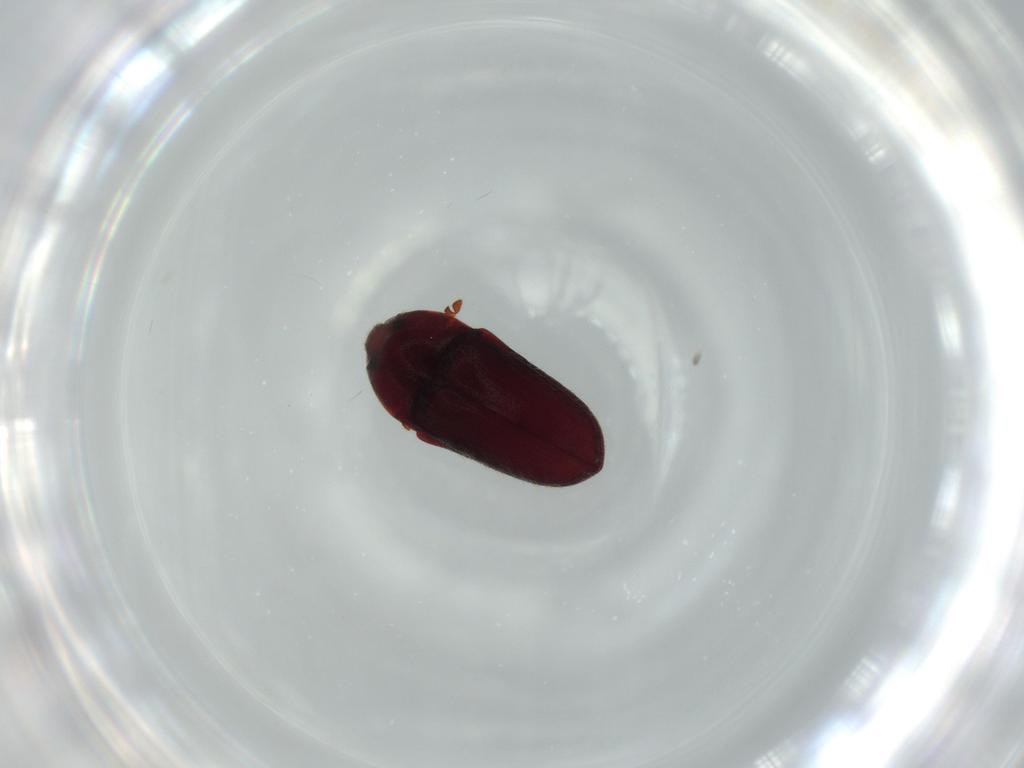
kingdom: Animalia
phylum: Arthropoda
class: Insecta
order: Coleoptera
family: Throscidae
